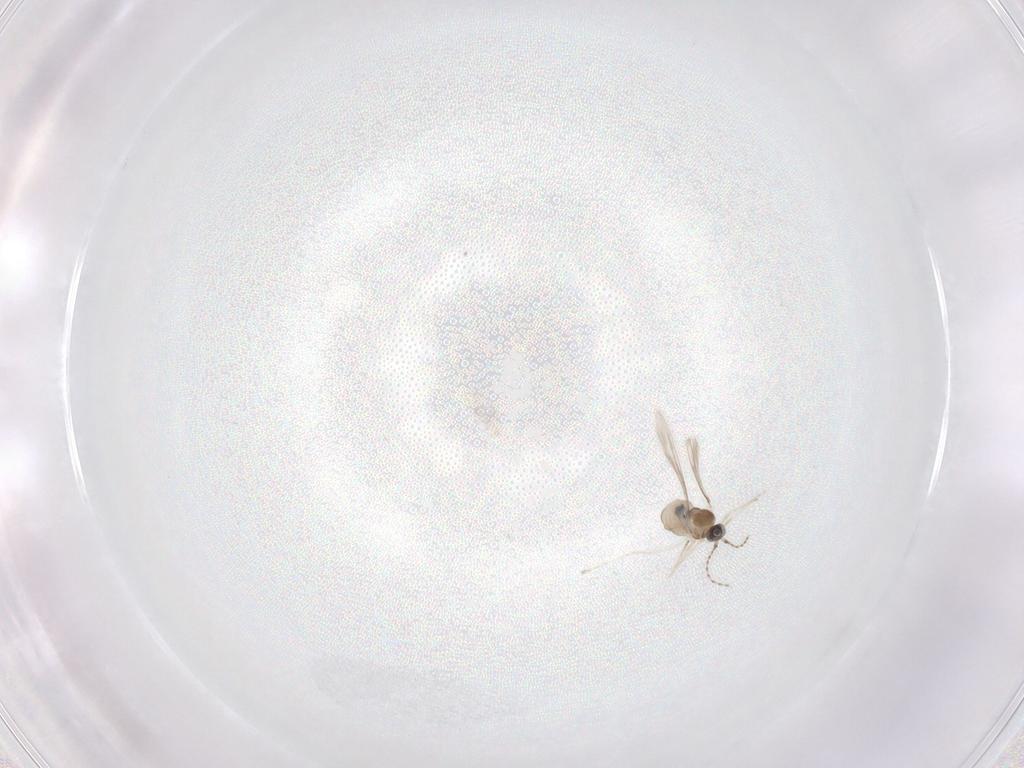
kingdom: Animalia
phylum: Arthropoda
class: Insecta
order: Diptera
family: Cecidomyiidae
